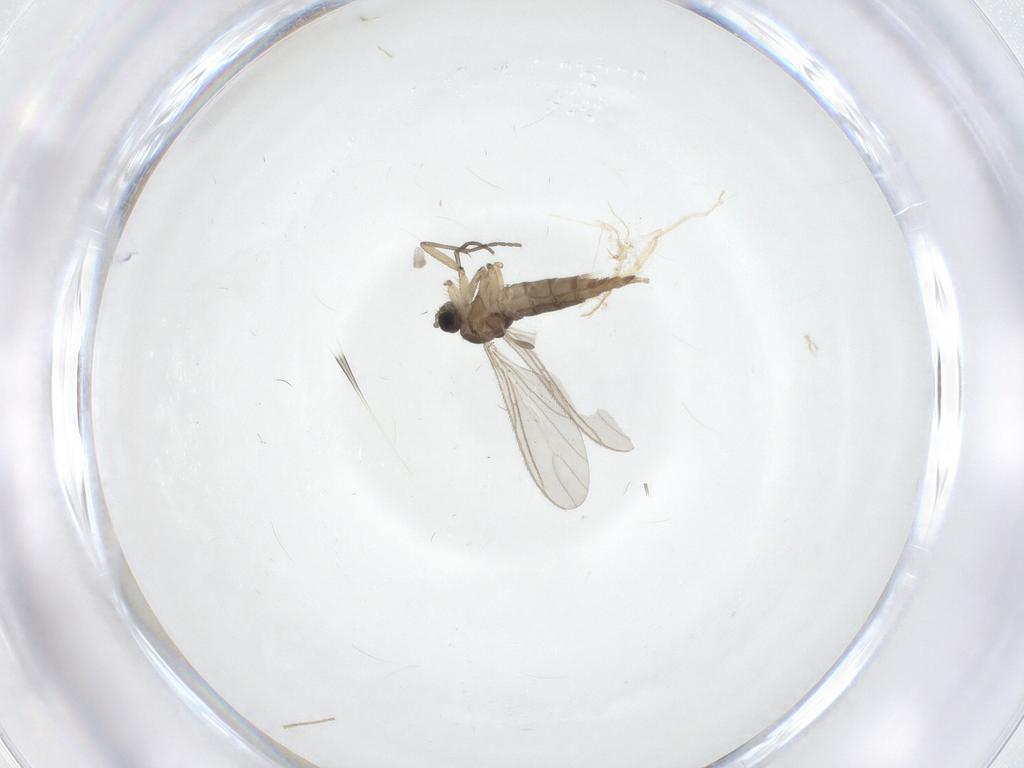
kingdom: Animalia
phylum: Arthropoda
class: Insecta
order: Diptera
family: Sciaridae
